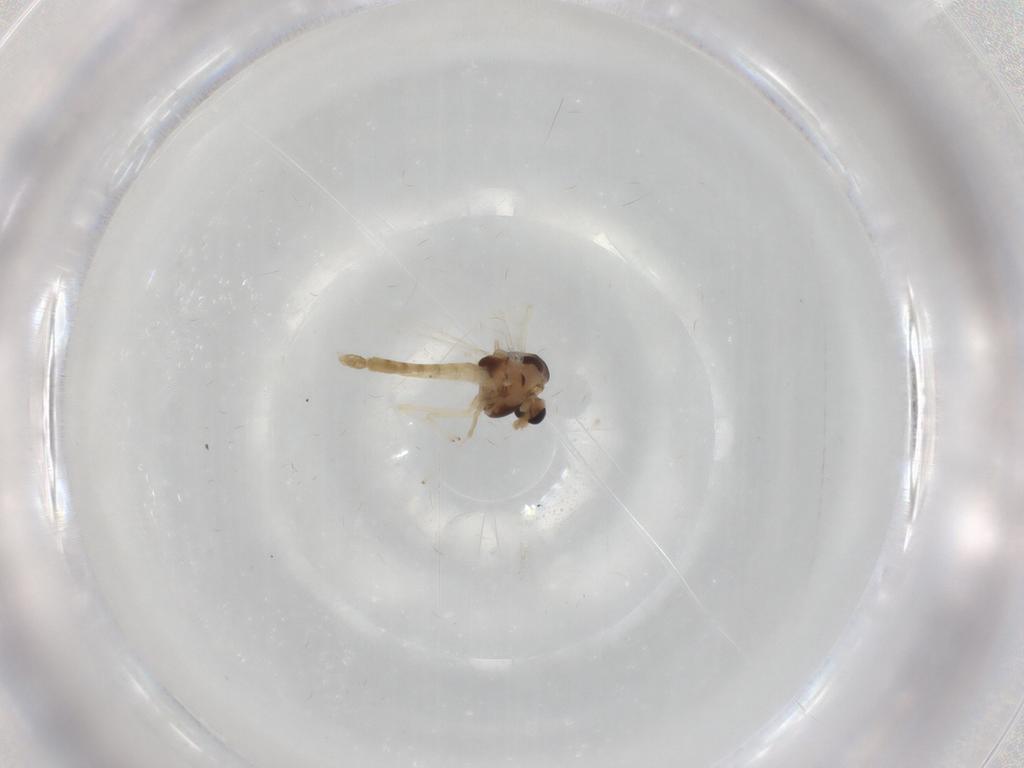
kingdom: Animalia
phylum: Arthropoda
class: Insecta
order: Diptera
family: Chironomidae
